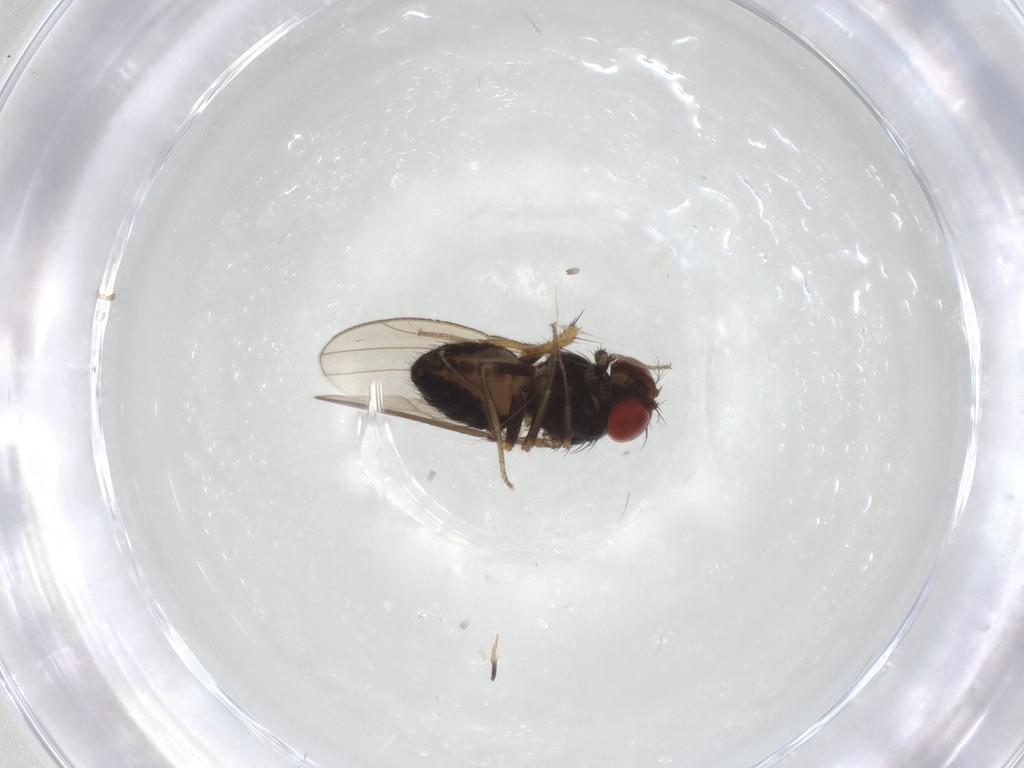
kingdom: Animalia
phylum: Arthropoda
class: Insecta
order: Diptera
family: Drosophilidae
